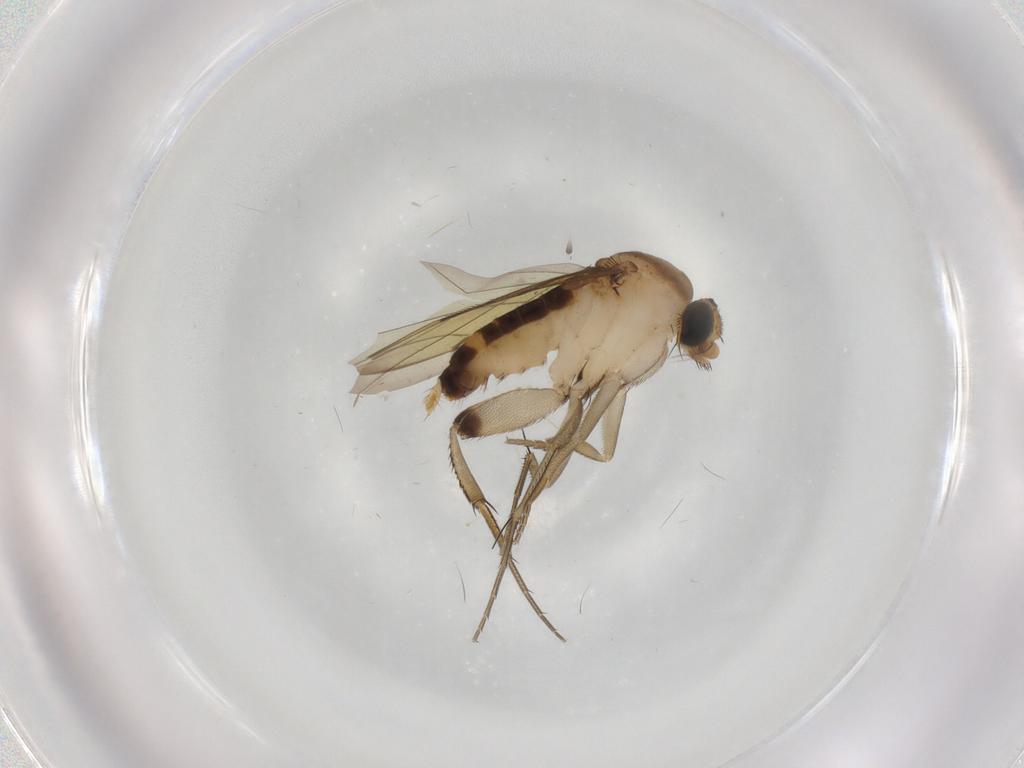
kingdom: Animalia
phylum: Arthropoda
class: Insecta
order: Diptera
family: Phoridae
